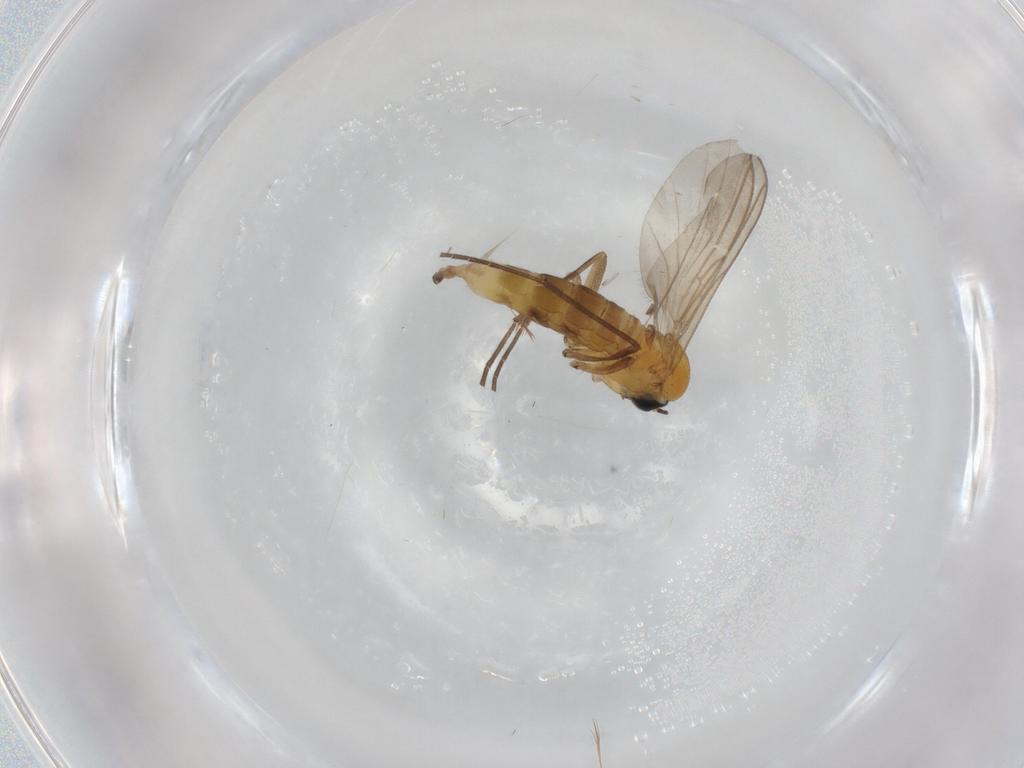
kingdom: Animalia
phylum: Arthropoda
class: Insecta
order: Diptera
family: Sciaridae
